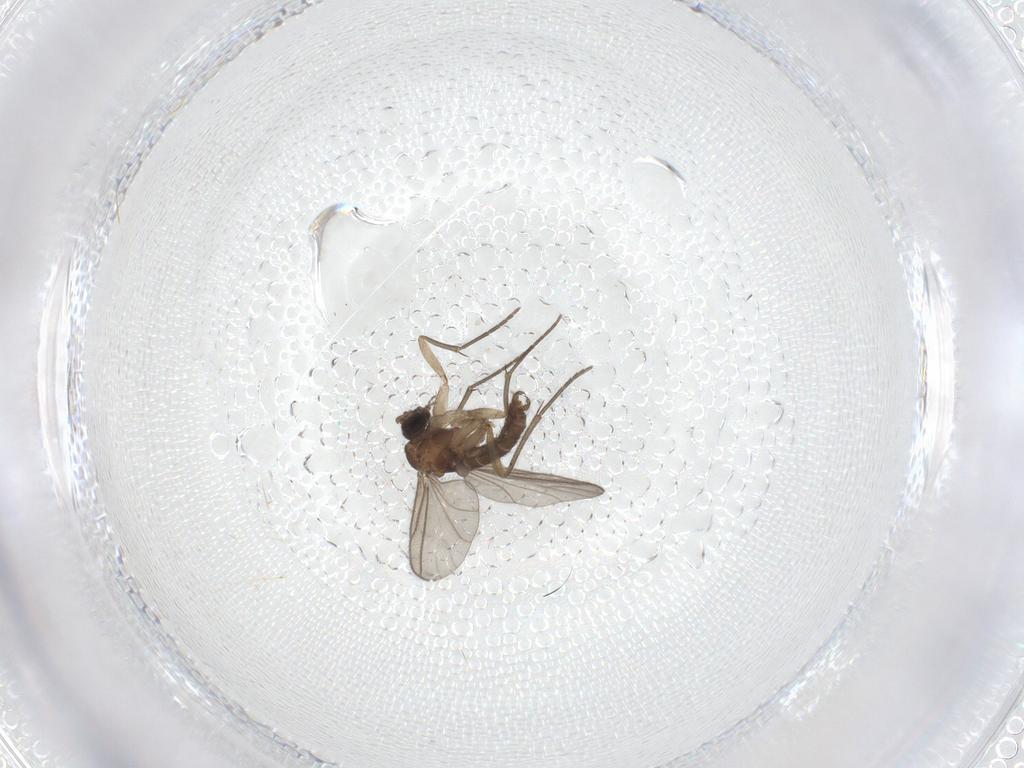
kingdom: Animalia
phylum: Arthropoda
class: Insecta
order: Diptera
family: Sciaridae
